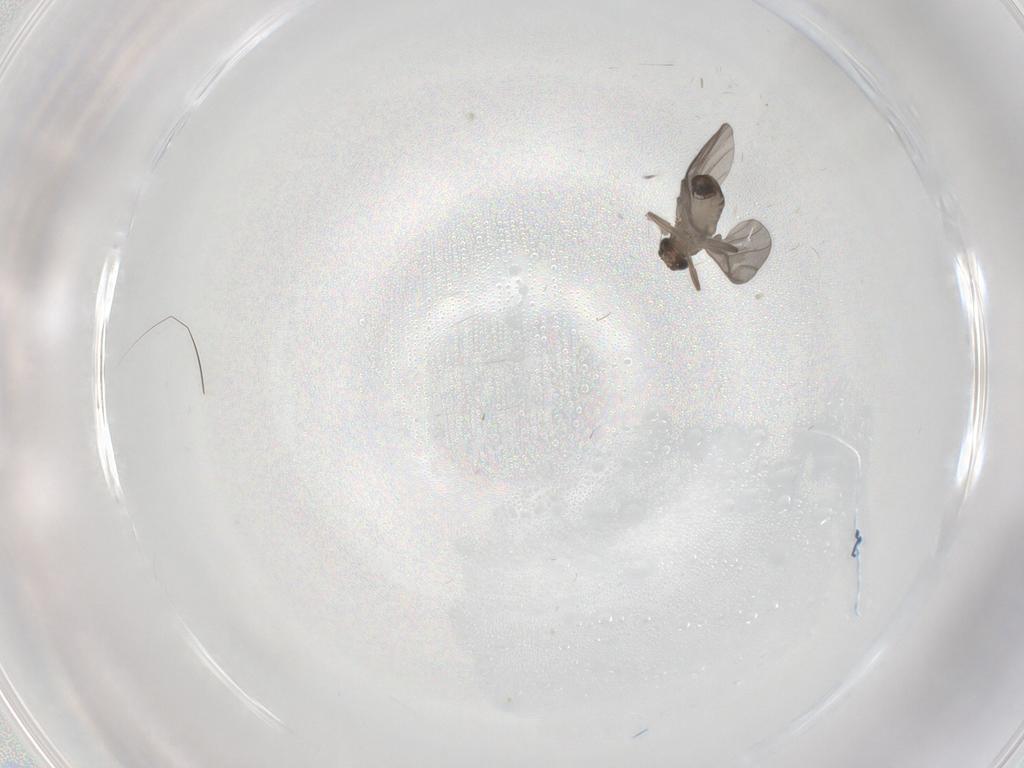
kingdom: Animalia
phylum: Arthropoda
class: Insecta
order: Diptera
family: Phoridae
